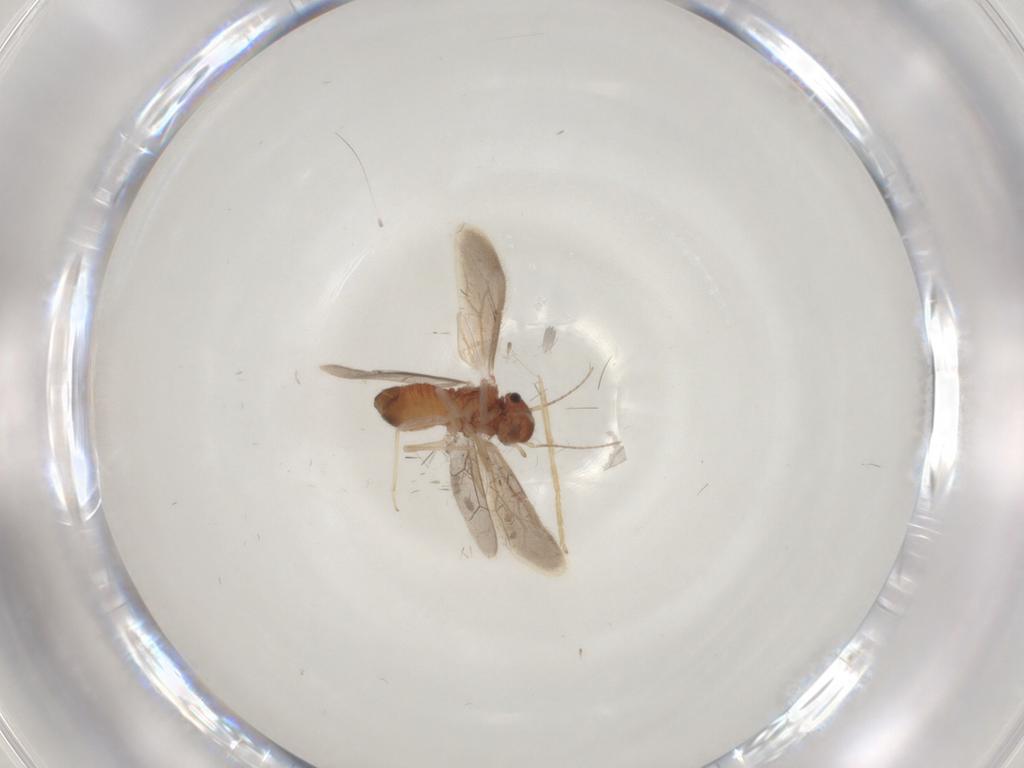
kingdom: Animalia
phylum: Arthropoda
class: Insecta
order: Psocodea
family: Archipsocidae
